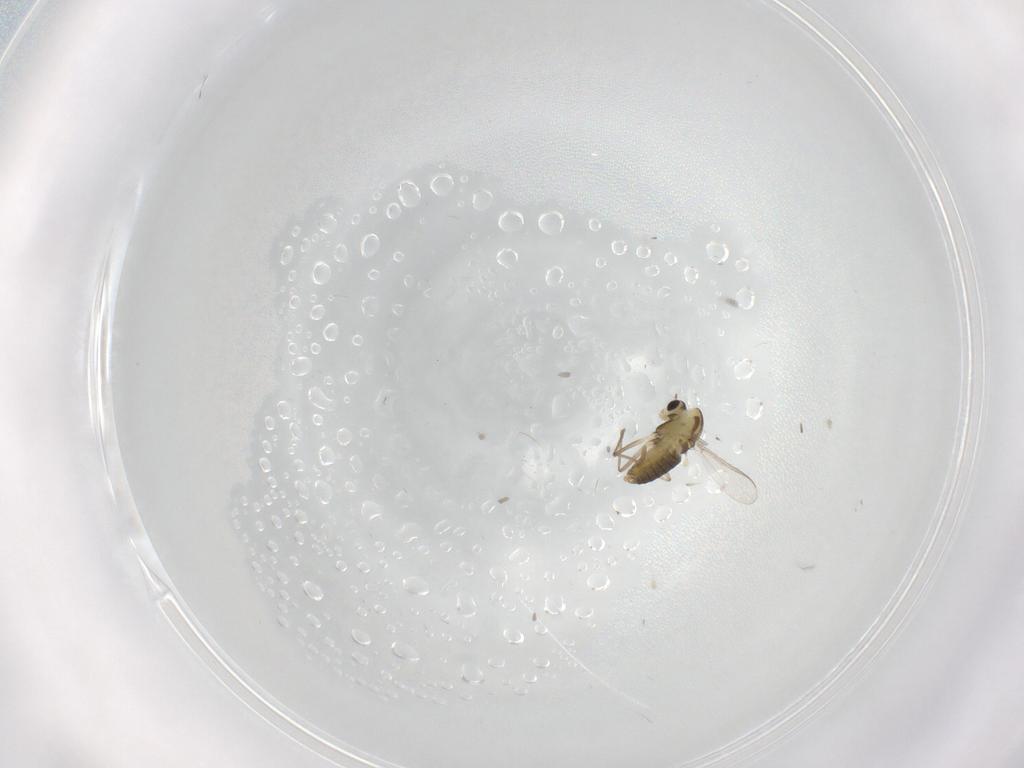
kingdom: Animalia
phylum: Arthropoda
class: Insecta
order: Diptera
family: Chironomidae
